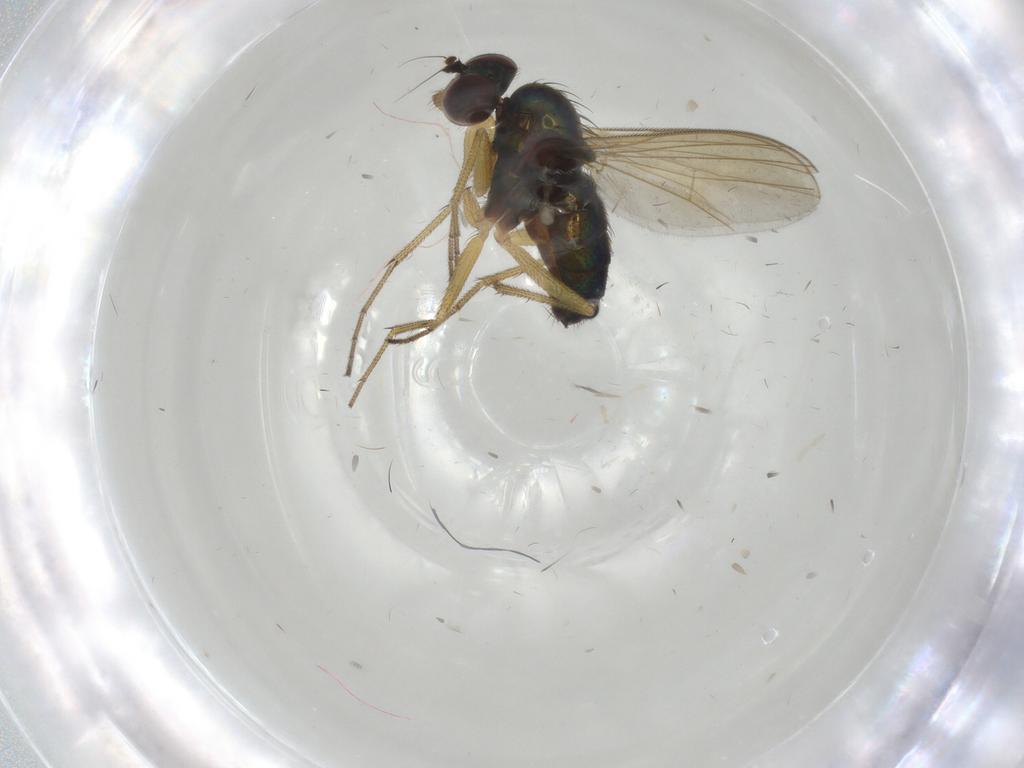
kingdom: Animalia
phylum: Arthropoda
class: Insecta
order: Diptera
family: Dolichopodidae
